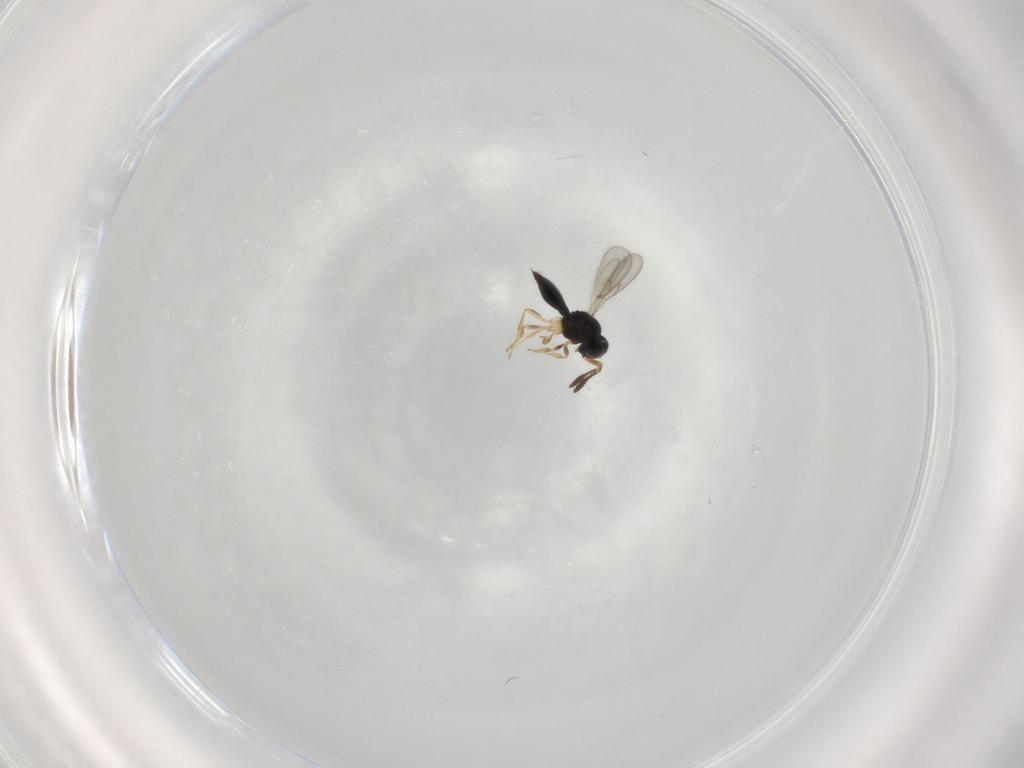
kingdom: Animalia
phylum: Arthropoda
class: Insecta
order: Hymenoptera
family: Scelionidae
